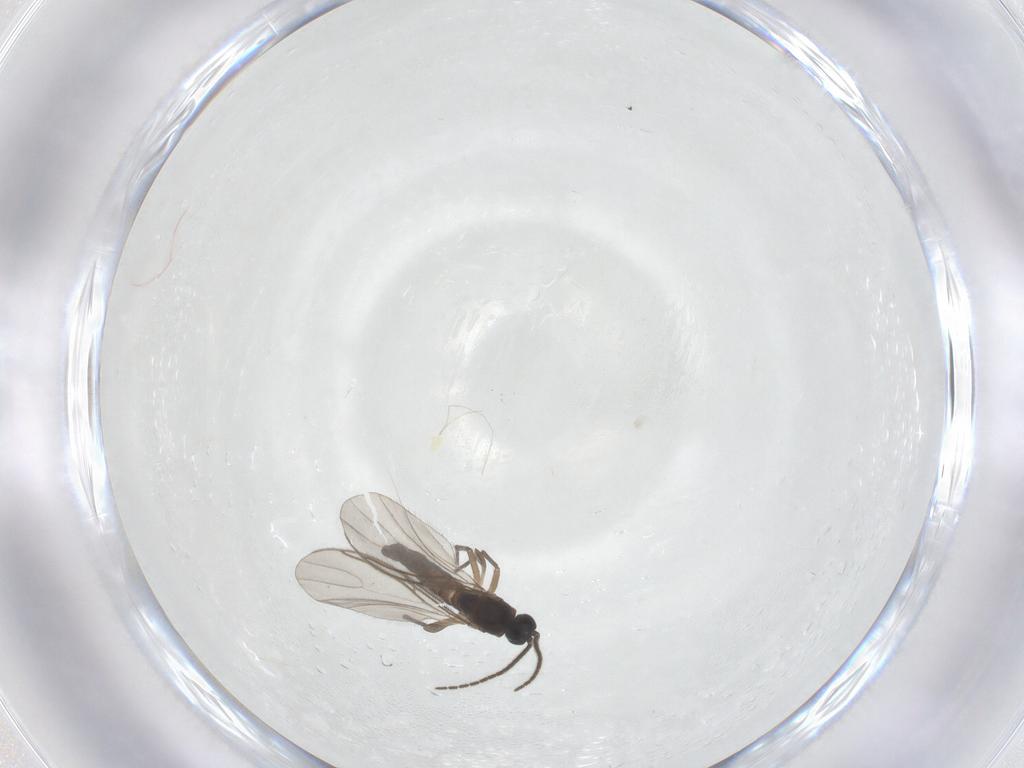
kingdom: Animalia
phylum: Arthropoda
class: Insecta
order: Diptera
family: Sciaridae
